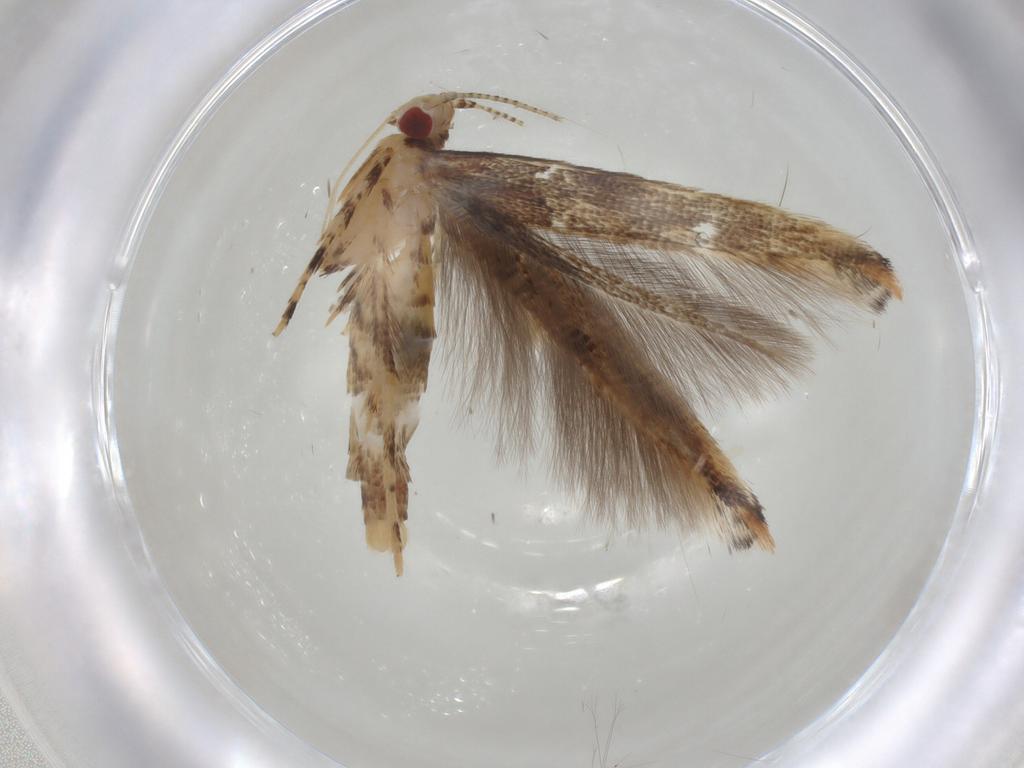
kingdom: Animalia
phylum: Arthropoda
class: Insecta
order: Lepidoptera
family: Cosmopterigidae
